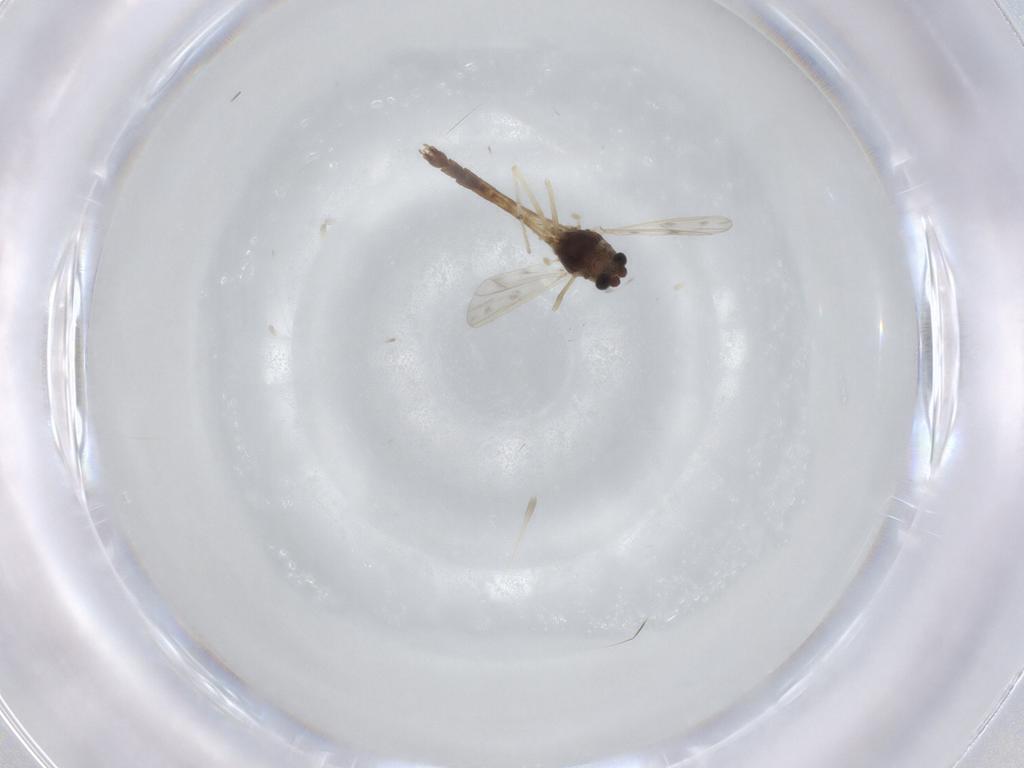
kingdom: Animalia
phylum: Arthropoda
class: Insecta
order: Diptera
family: Chironomidae
